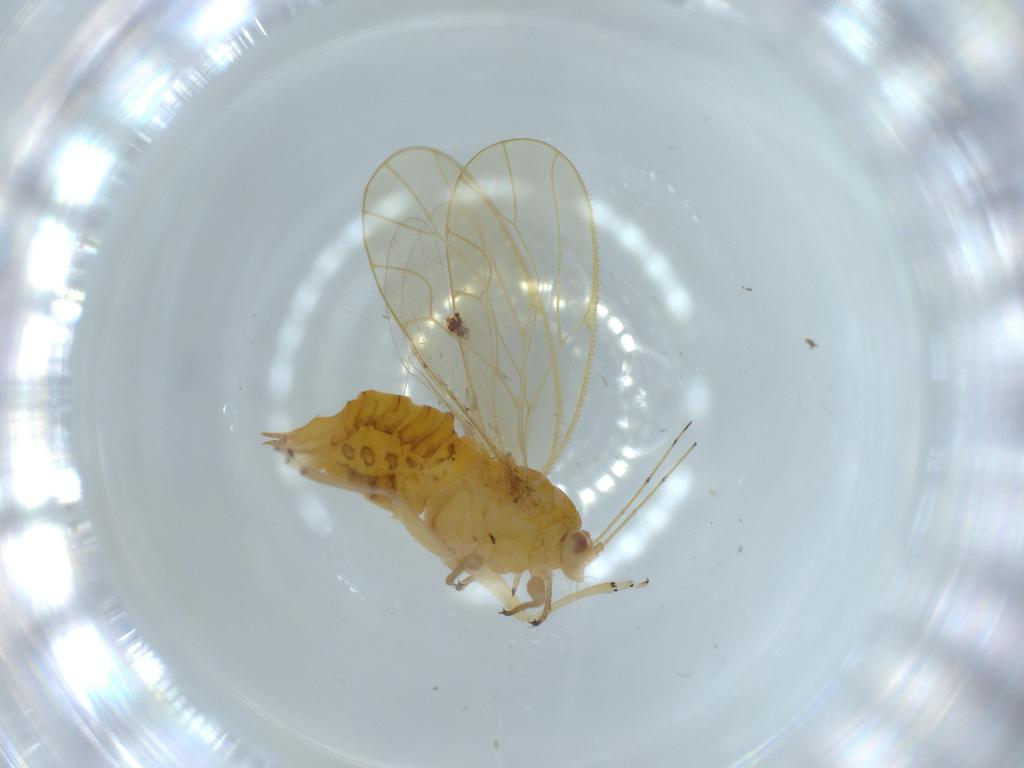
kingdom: Animalia
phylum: Arthropoda
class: Insecta
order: Hemiptera
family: Psyllidae
